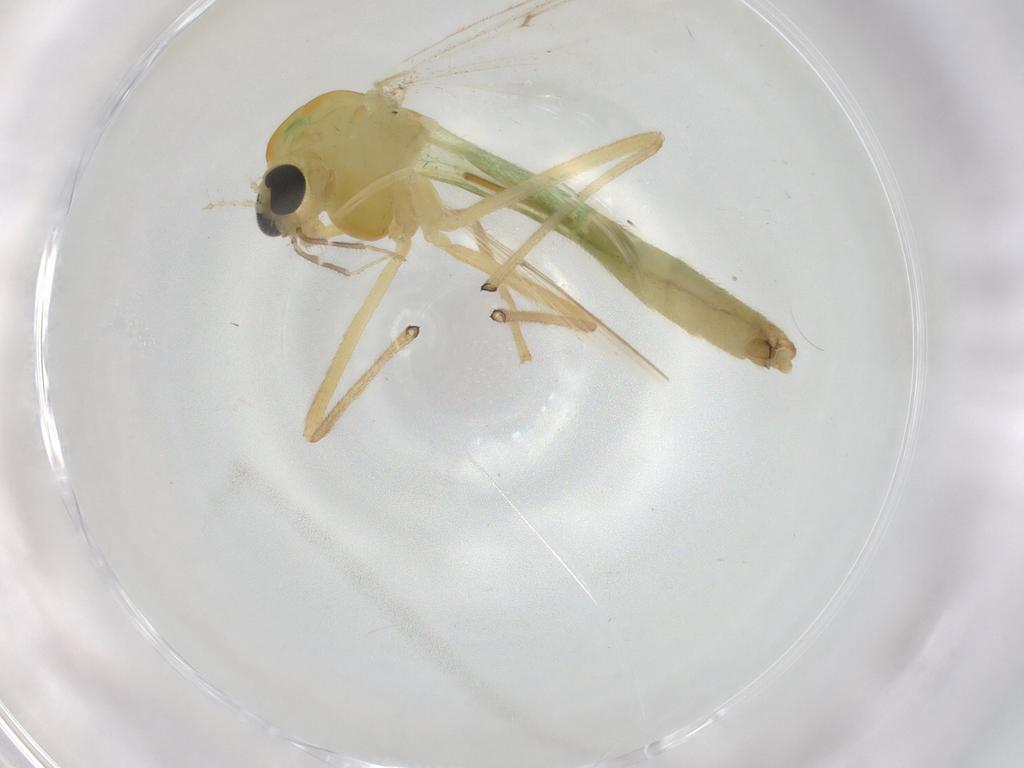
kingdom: Animalia
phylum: Arthropoda
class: Insecta
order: Diptera
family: Chironomidae
